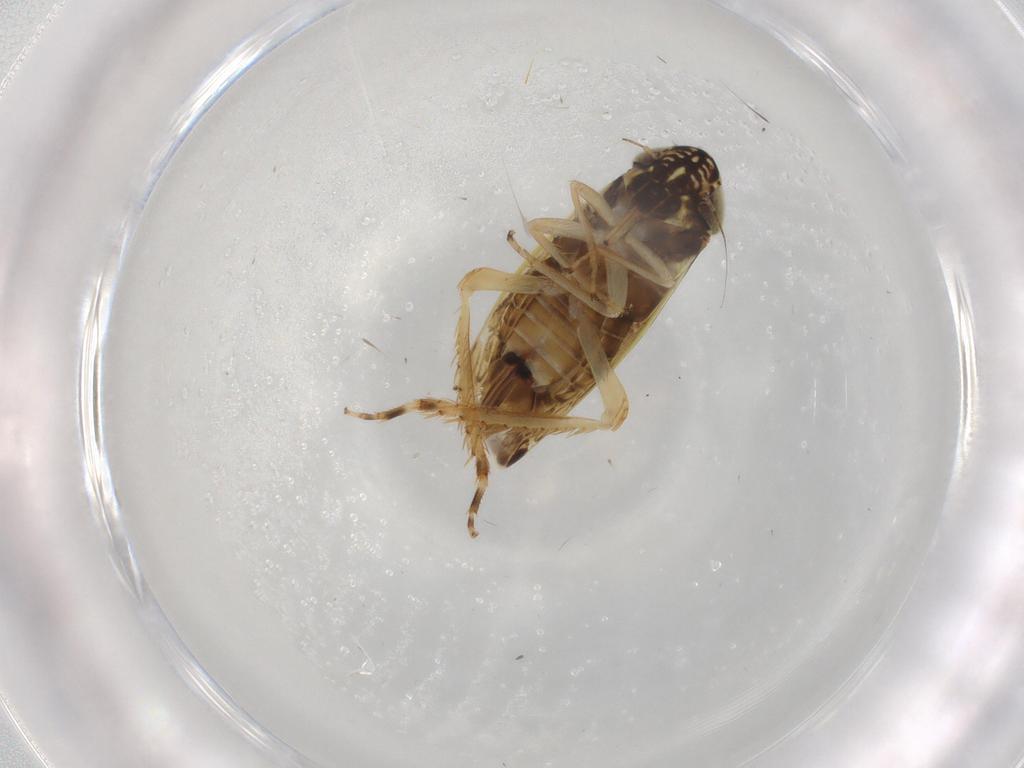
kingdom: Animalia
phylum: Arthropoda
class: Insecta
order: Hemiptera
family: Cicadellidae
